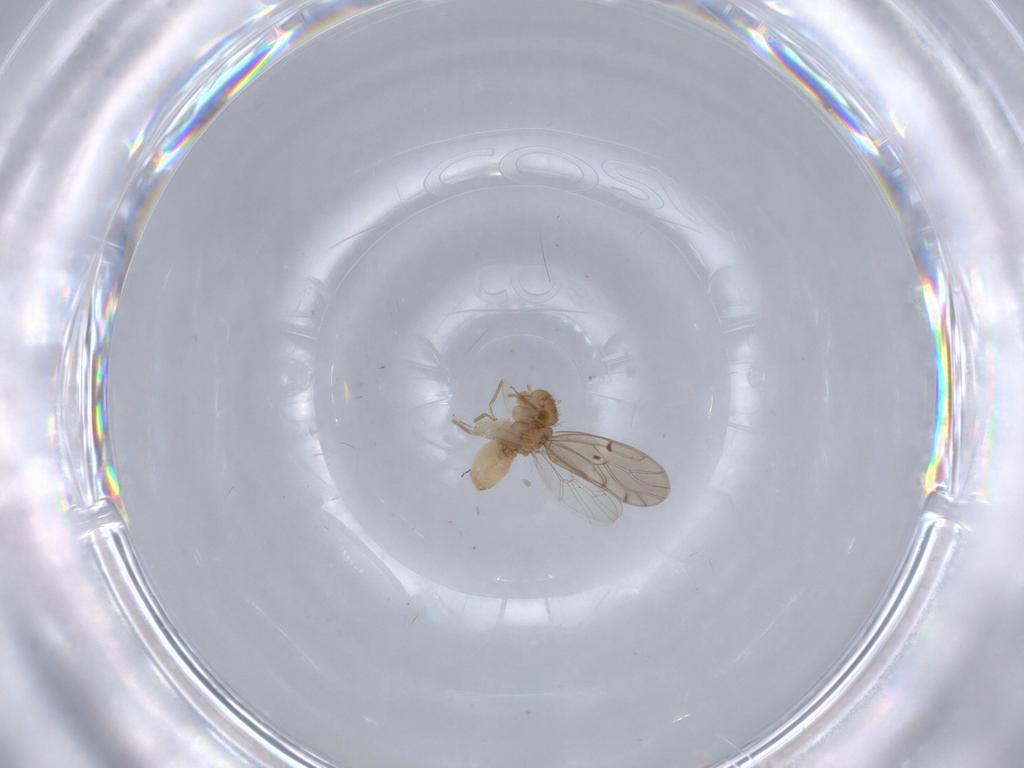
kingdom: Animalia
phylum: Arthropoda
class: Insecta
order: Psocodea
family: Ectopsocidae
